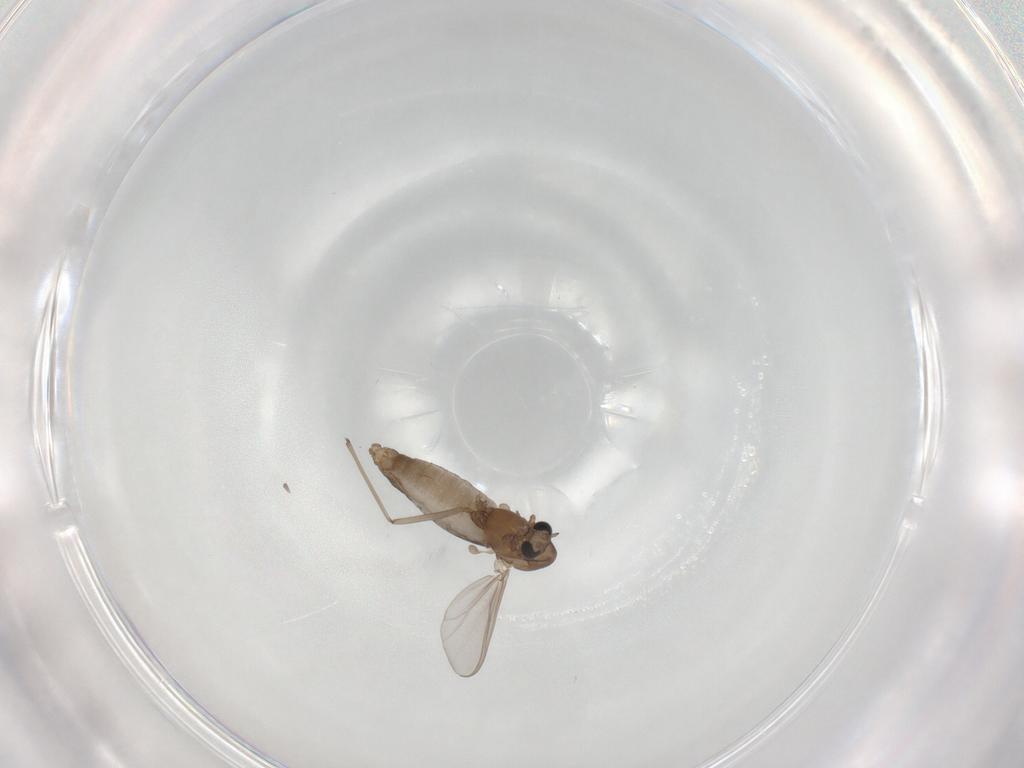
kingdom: Animalia
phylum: Arthropoda
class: Insecta
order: Diptera
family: Chironomidae
